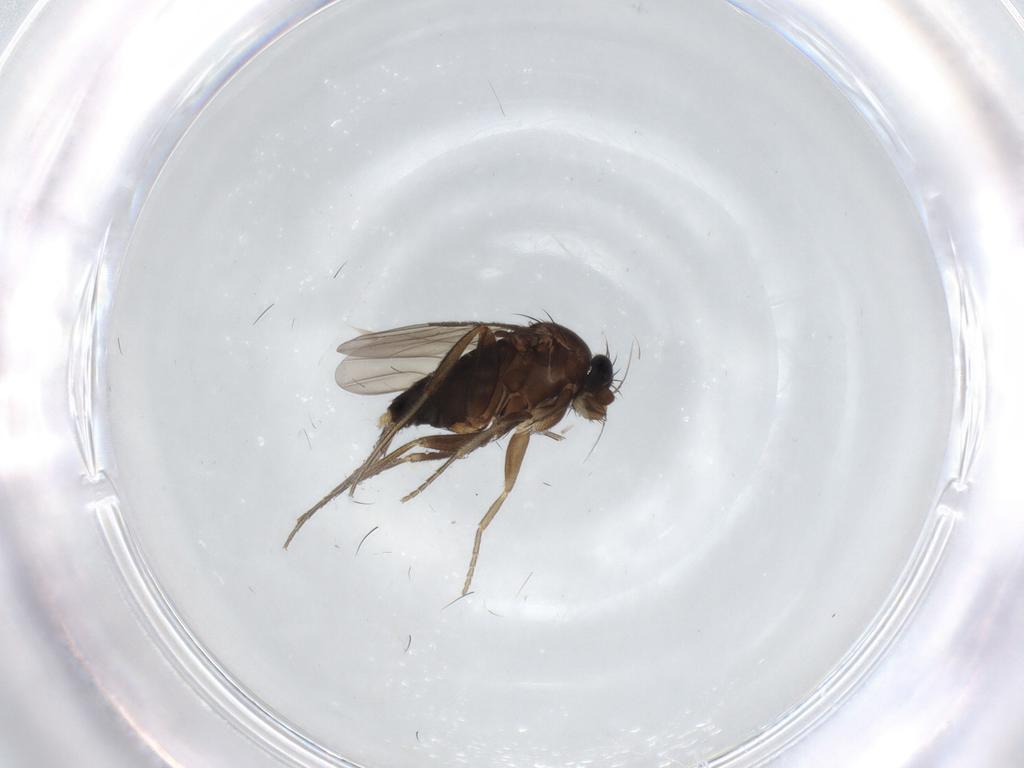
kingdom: Animalia
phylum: Arthropoda
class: Insecta
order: Diptera
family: Phoridae
